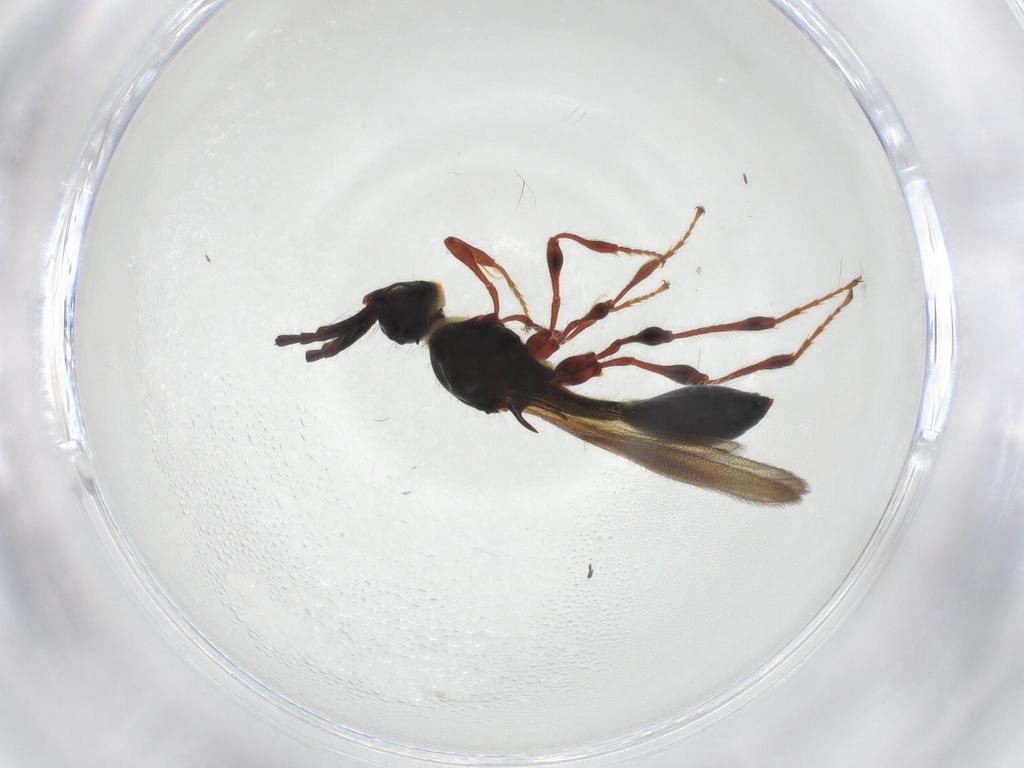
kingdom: Animalia
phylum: Arthropoda
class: Insecta
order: Hymenoptera
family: Diapriidae
